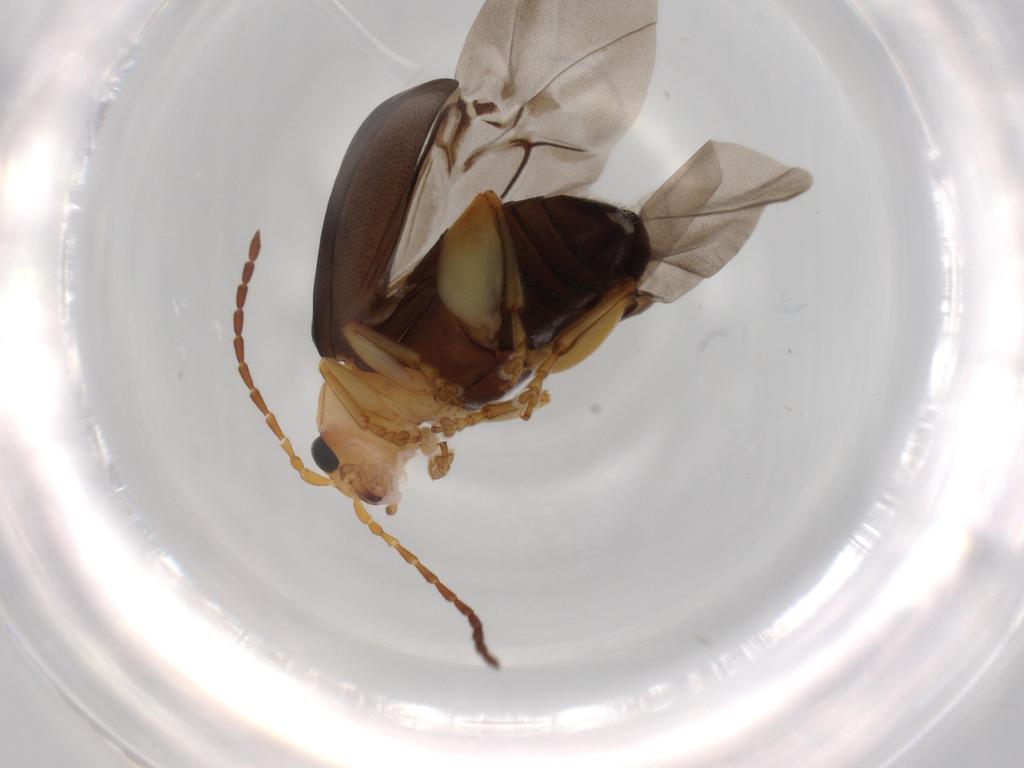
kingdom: Animalia
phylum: Arthropoda
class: Insecta
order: Coleoptera
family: Chrysomelidae
